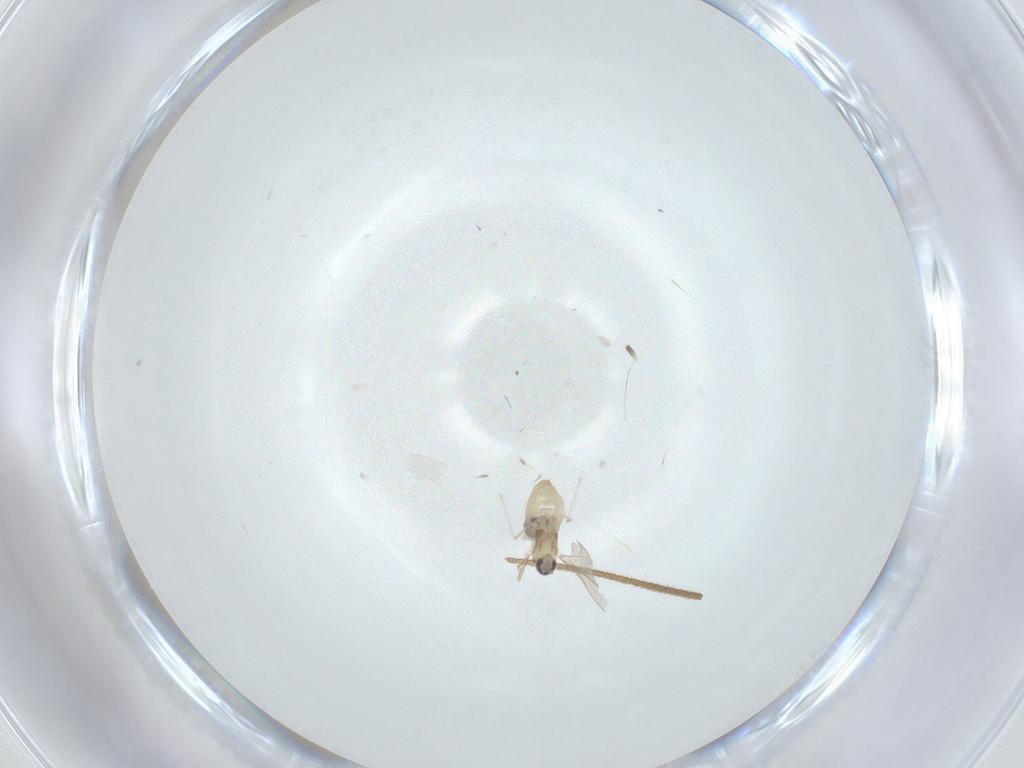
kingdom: Animalia
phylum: Arthropoda
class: Insecta
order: Diptera
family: Cecidomyiidae
